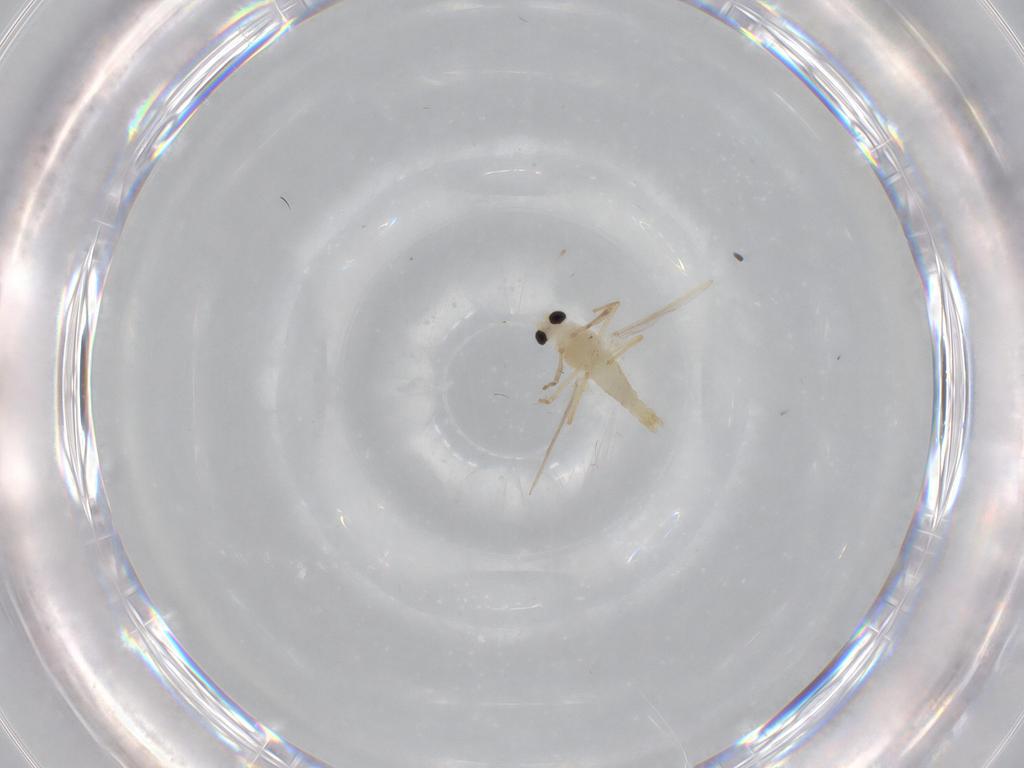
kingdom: Animalia
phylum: Arthropoda
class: Insecta
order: Diptera
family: Chironomidae
